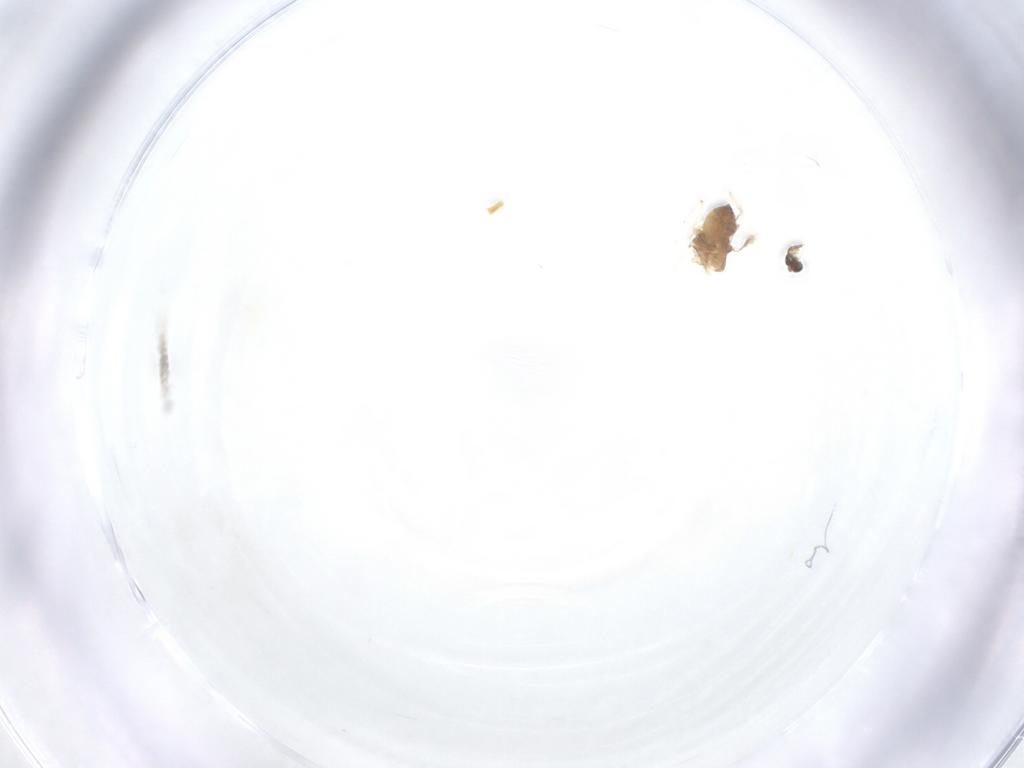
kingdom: Animalia
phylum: Arthropoda
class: Insecta
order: Diptera
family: Chironomidae
